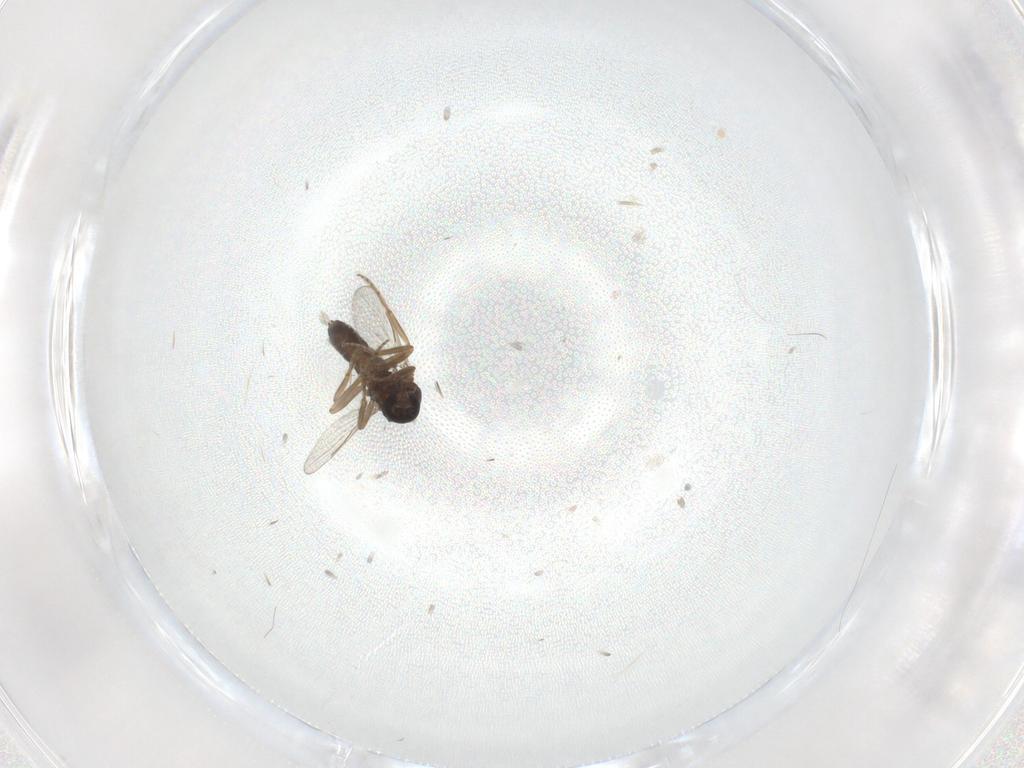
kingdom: Animalia
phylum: Arthropoda
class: Insecta
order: Diptera
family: Ceratopogonidae
